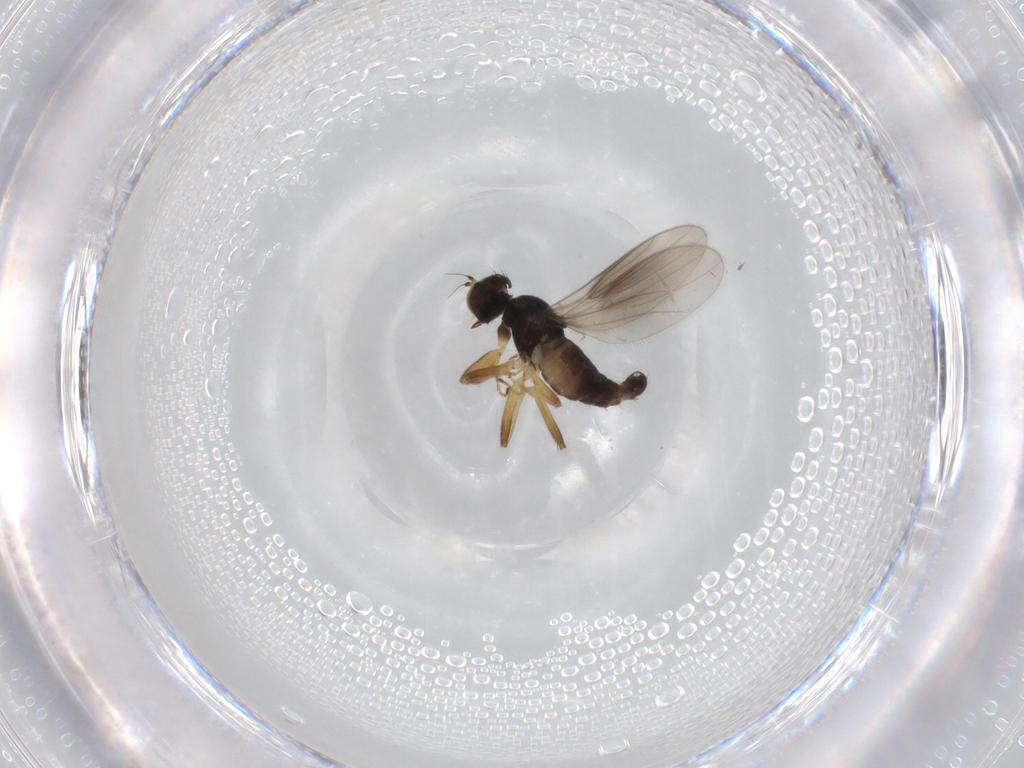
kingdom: Animalia
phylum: Arthropoda
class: Insecta
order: Diptera
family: Hybotidae
